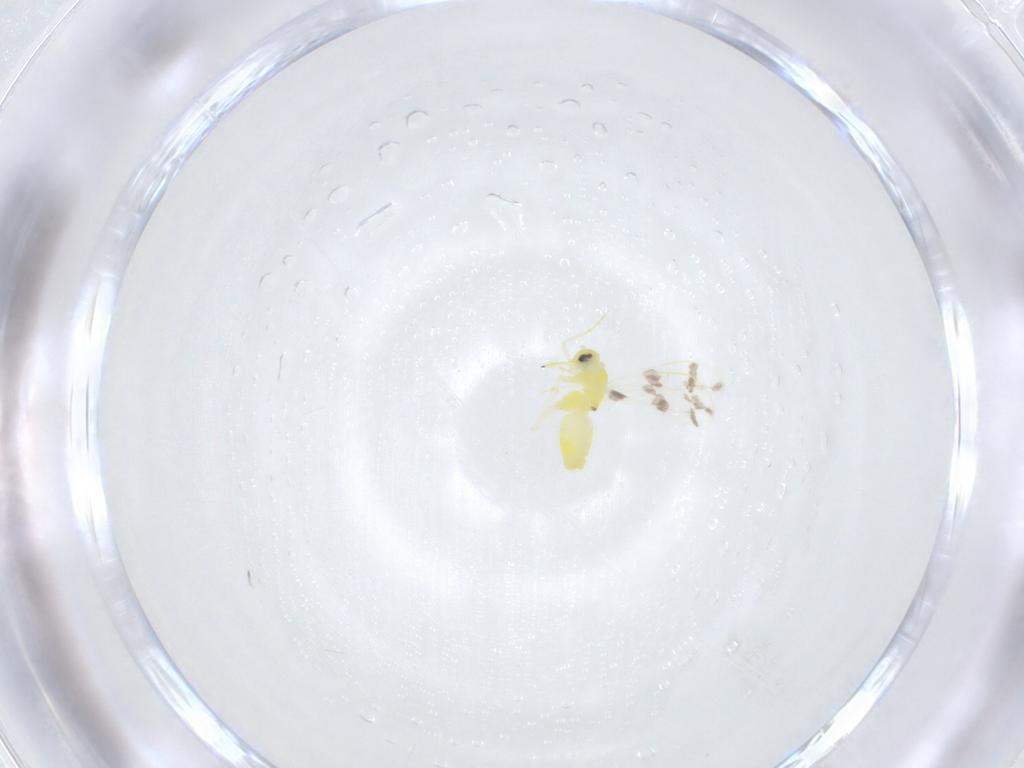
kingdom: Animalia
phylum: Arthropoda
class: Insecta
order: Hemiptera
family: Aleyrodidae
